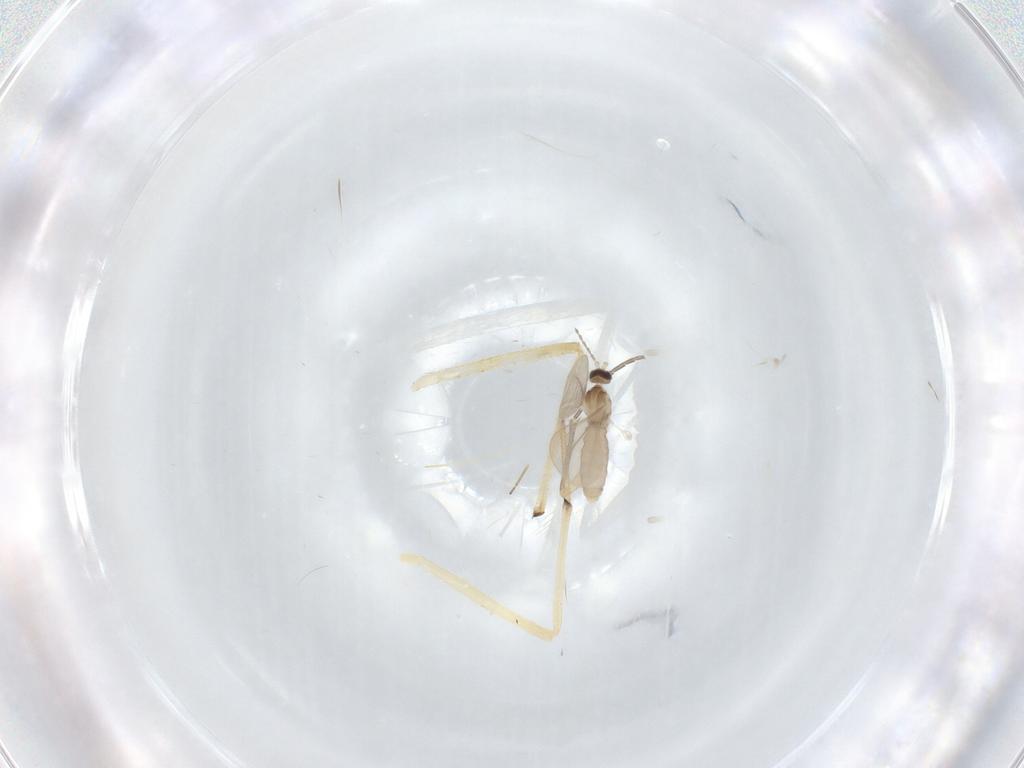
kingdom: Animalia
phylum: Arthropoda
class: Insecta
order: Diptera
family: Cecidomyiidae
